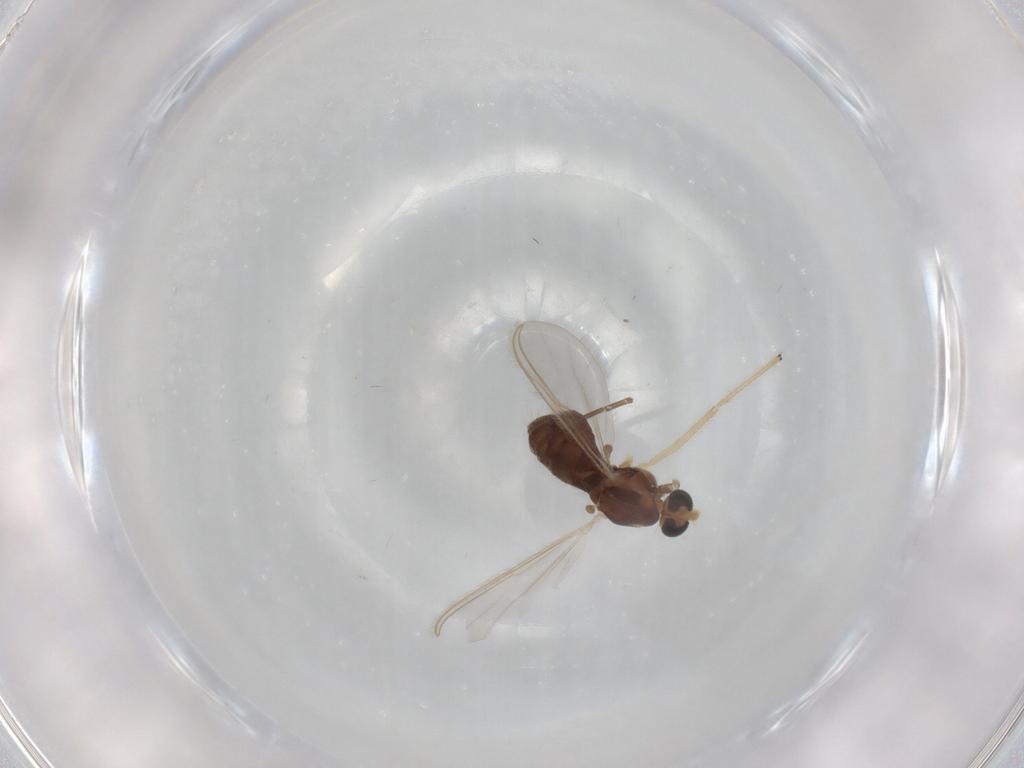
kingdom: Animalia
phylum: Arthropoda
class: Insecta
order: Diptera
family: Chironomidae
